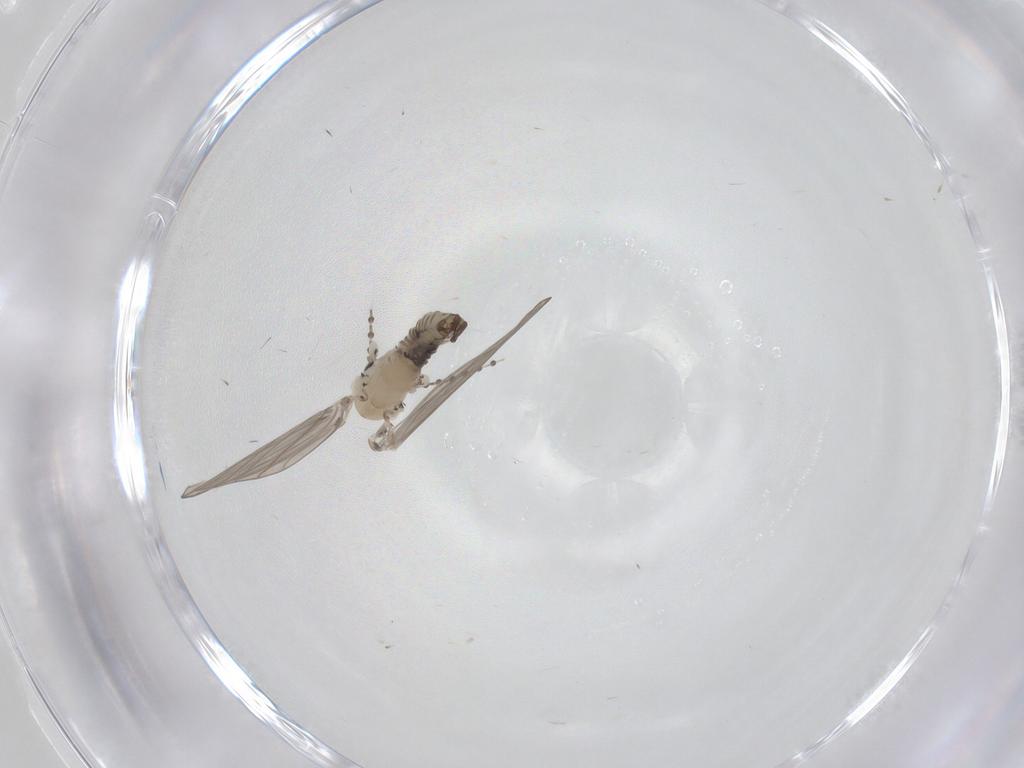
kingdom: Animalia
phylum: Arthropoda
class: Insecta
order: Diptera
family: Psychodidae
